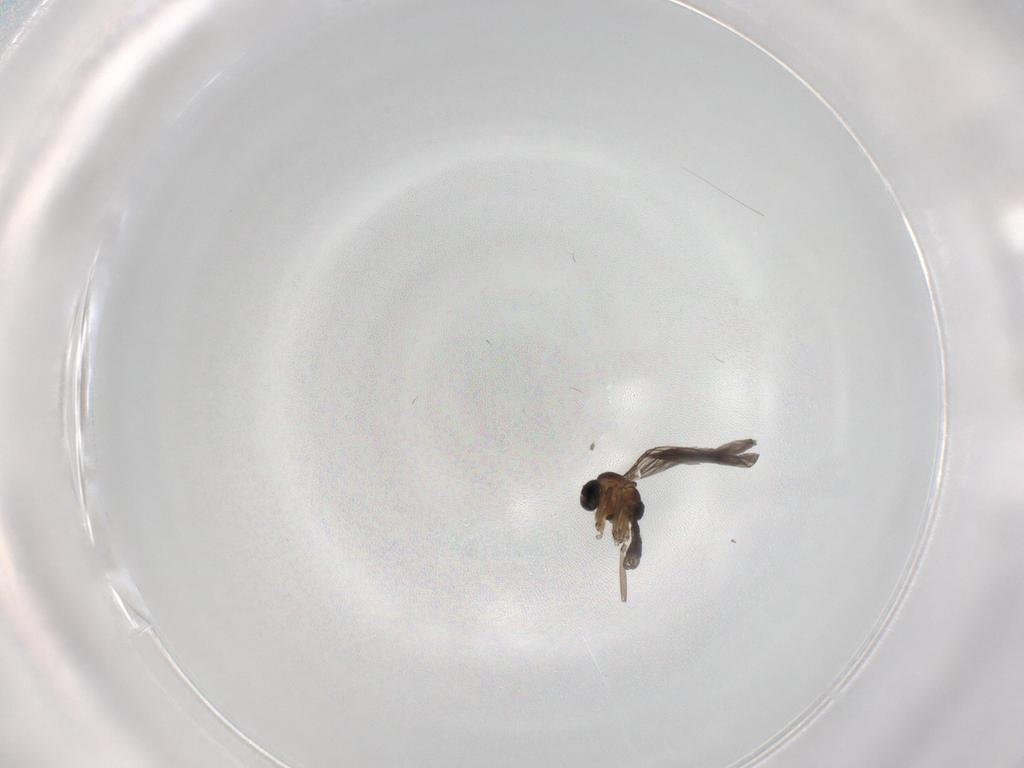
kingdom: Animalia
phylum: Arthropoda
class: Insecta
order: Diptera
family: Sciaridae
